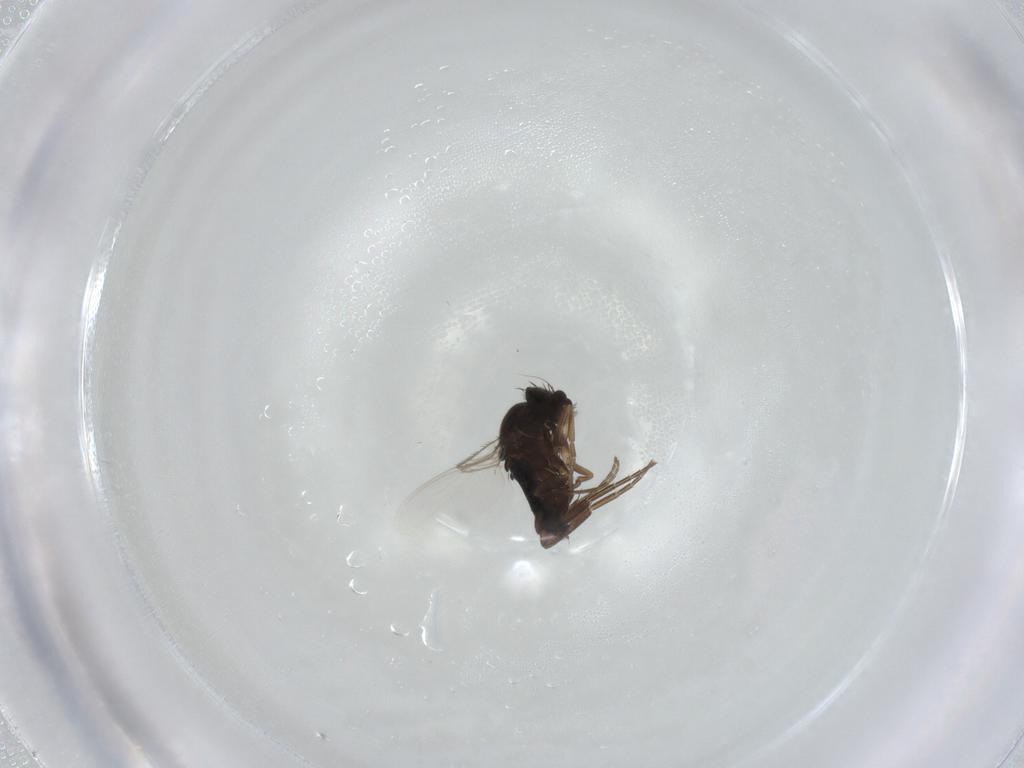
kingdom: Animalia
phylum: Arthropoda
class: Insecta
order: Diptera
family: Phoridae
